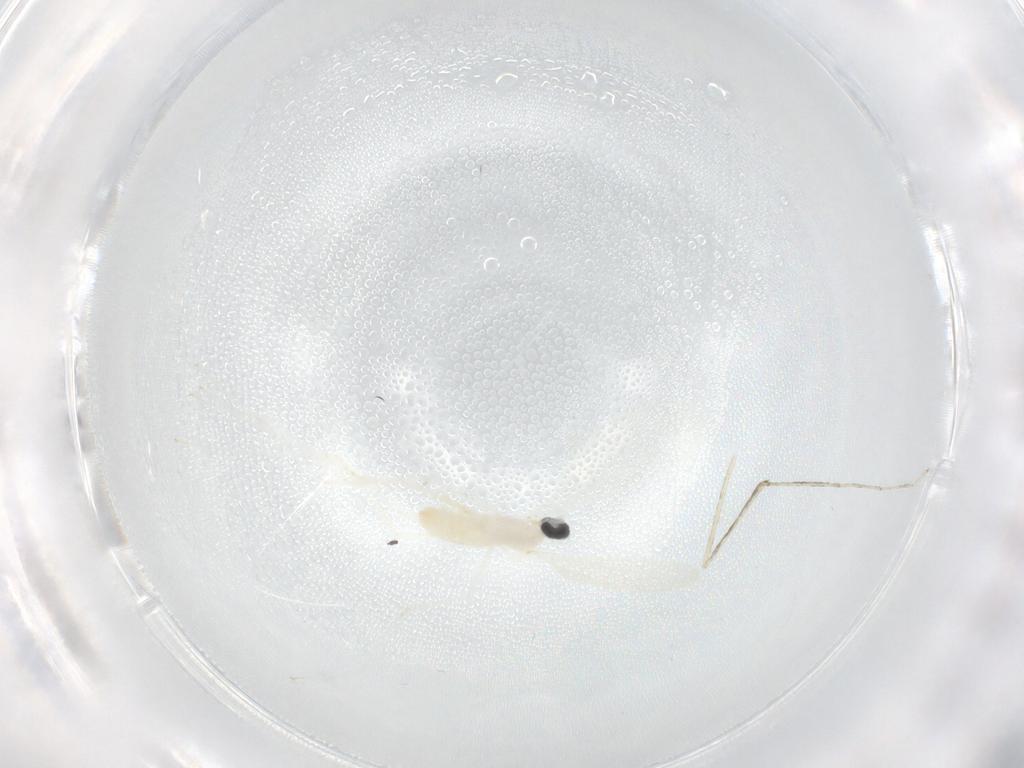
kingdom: Animalia
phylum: Arthropoda
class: Insecta
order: Diptera
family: Cecidomyiidae
